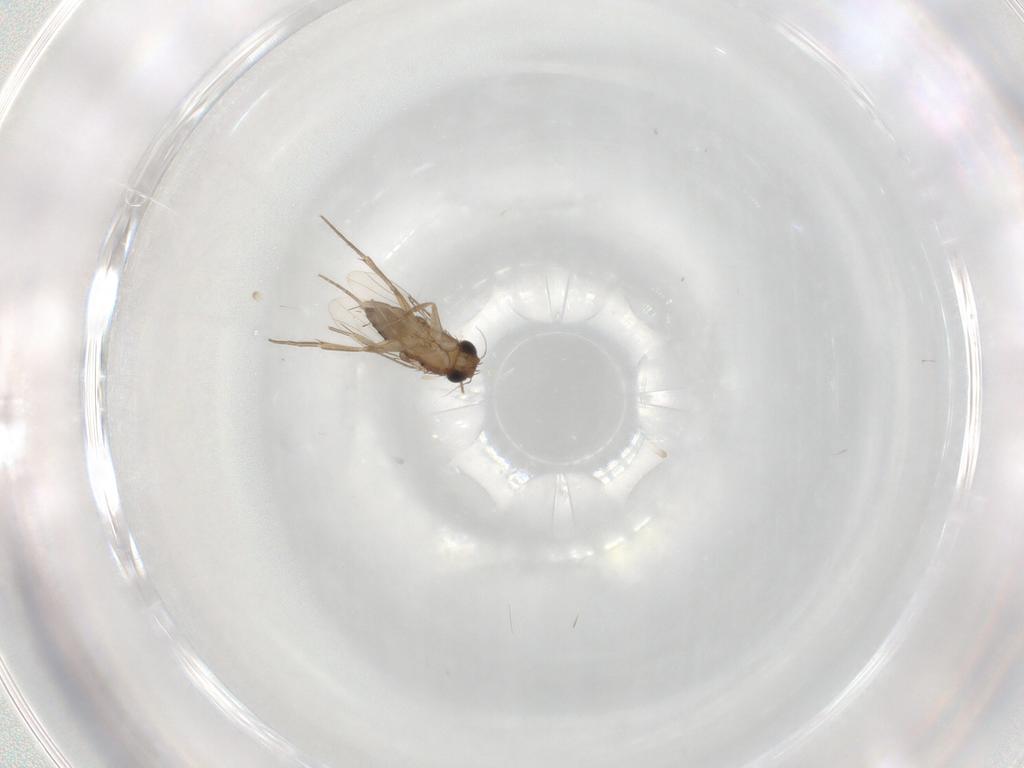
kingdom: Animalia
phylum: Arthropoda
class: Insecta
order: Diptera
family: Phoridae
